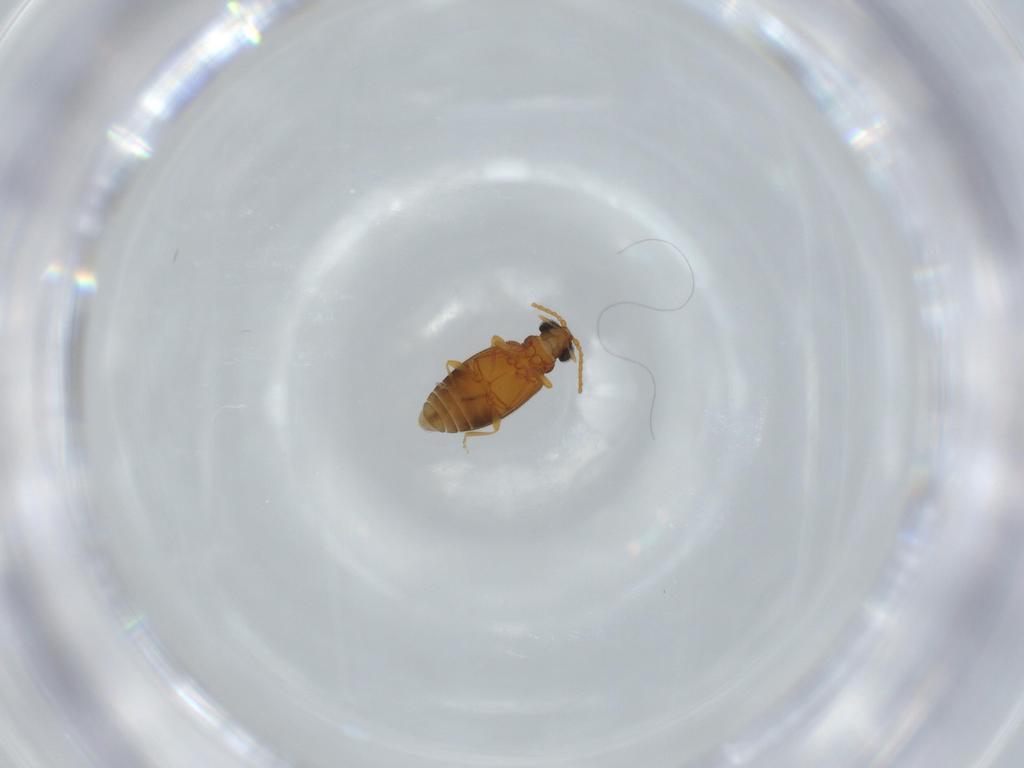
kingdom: Animalia
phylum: Arthropoda
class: Insecta
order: Coleoptera
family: Aderidae
